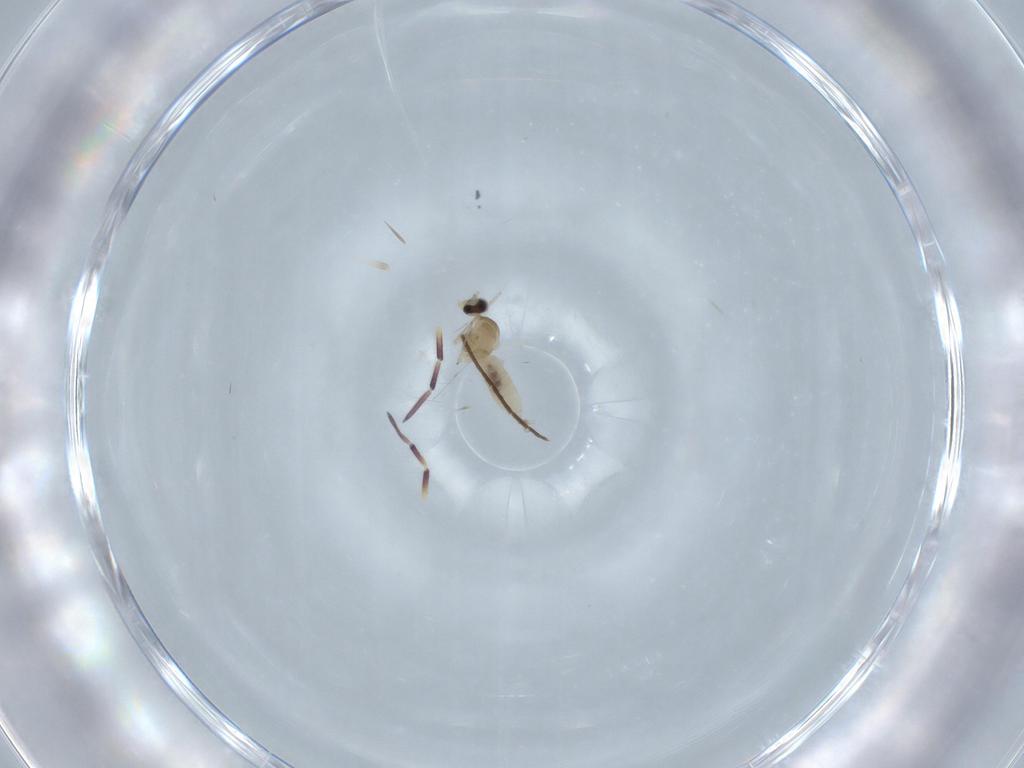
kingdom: Animalia
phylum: Arthropoda
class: Insecta
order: Diptera
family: Cecidomyiidae
